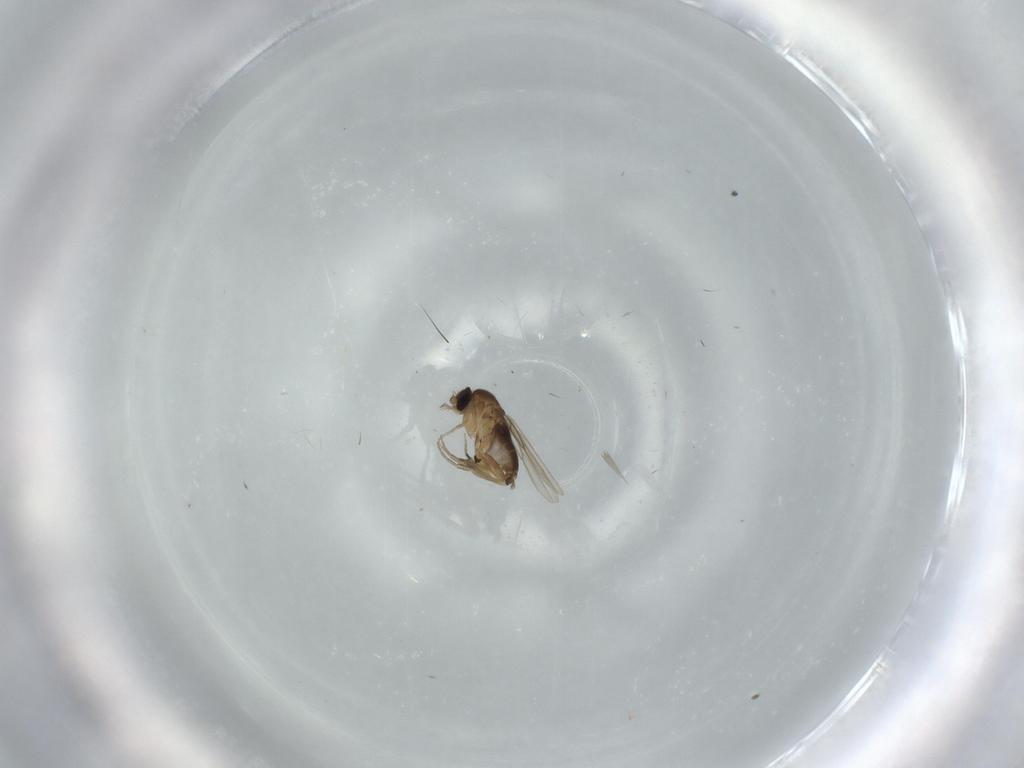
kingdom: Animalia
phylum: Arthropoda
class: Insecta
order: Diptera
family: Phoridae
